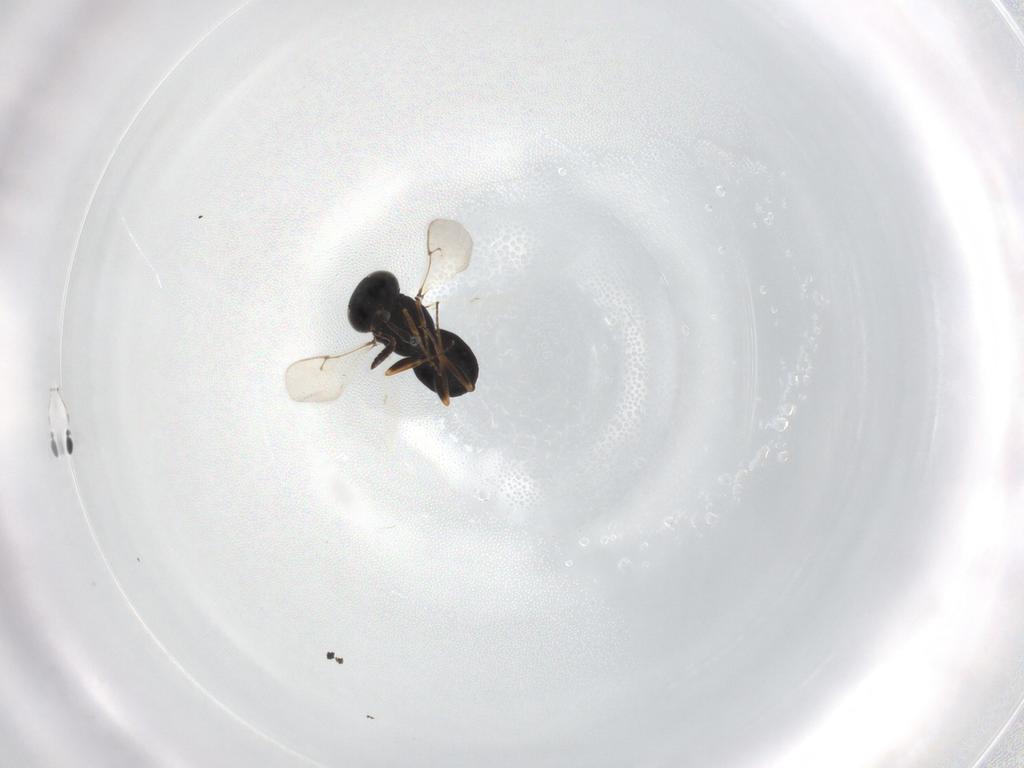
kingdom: Animalia
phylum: Arthropoda
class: Insecta
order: Hymenoptera
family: Scelionidae
